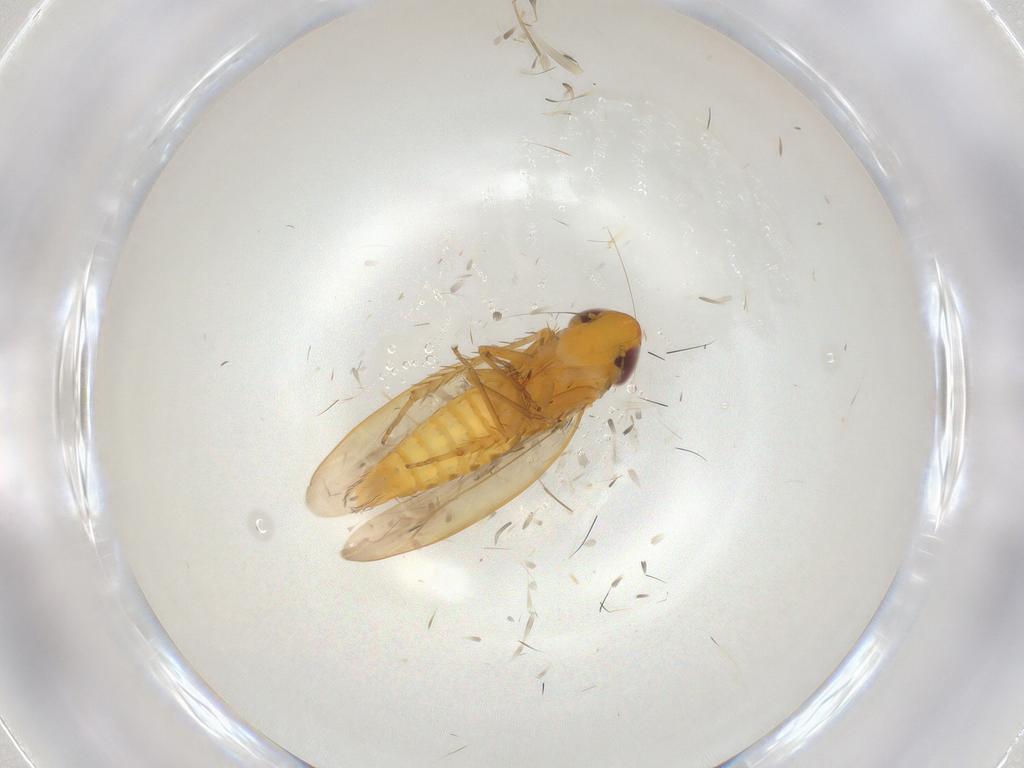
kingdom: Animalia
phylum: Arthropoda
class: Insecta
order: Hemiptera
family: Cicadellidae
